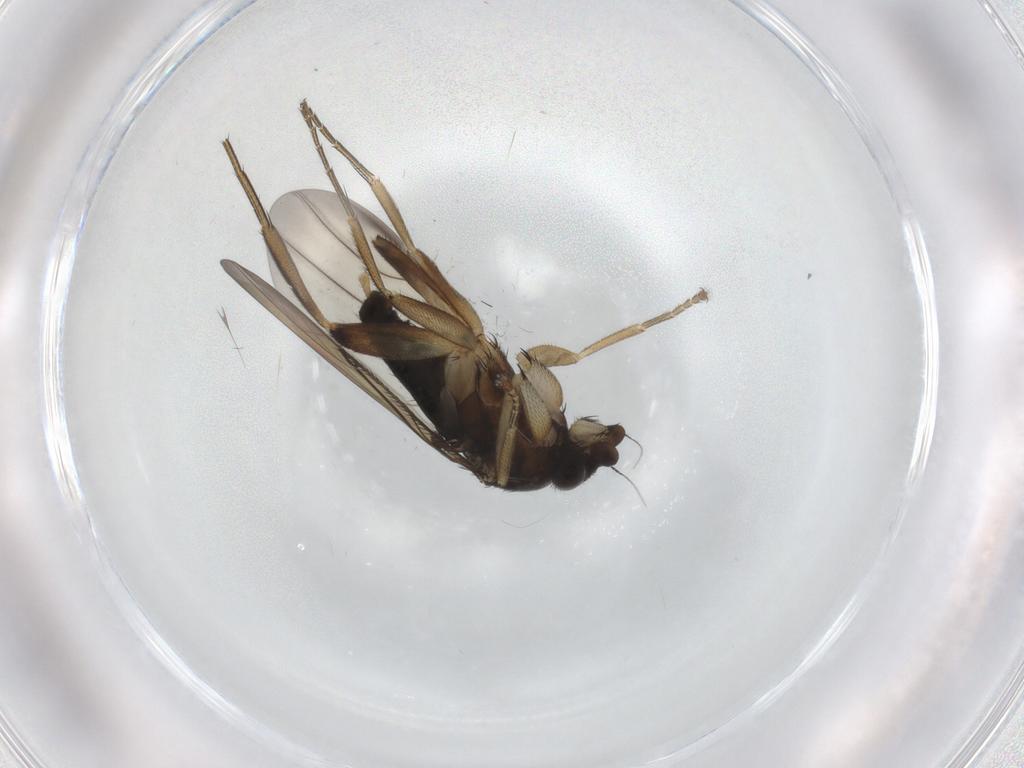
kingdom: Animalia
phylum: Arthropoda
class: Insecta
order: Diptera
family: Phoridae
